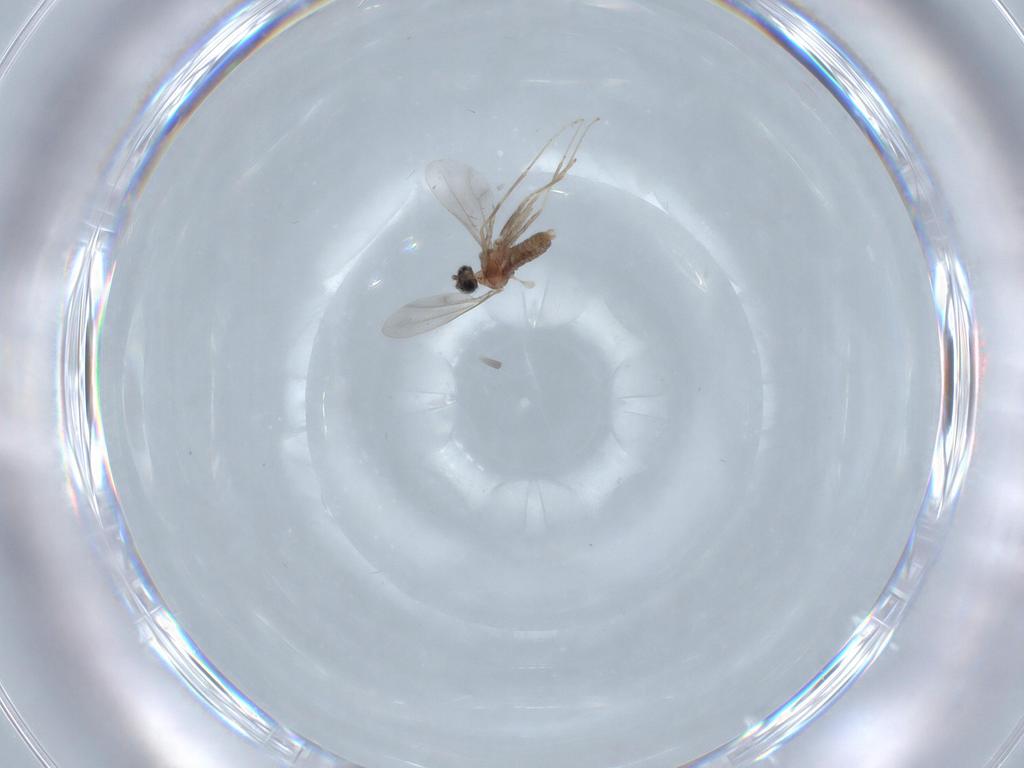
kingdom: Animalia
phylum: Arthropoda
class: Insecta
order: Diptera
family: Cecidomyiidae
